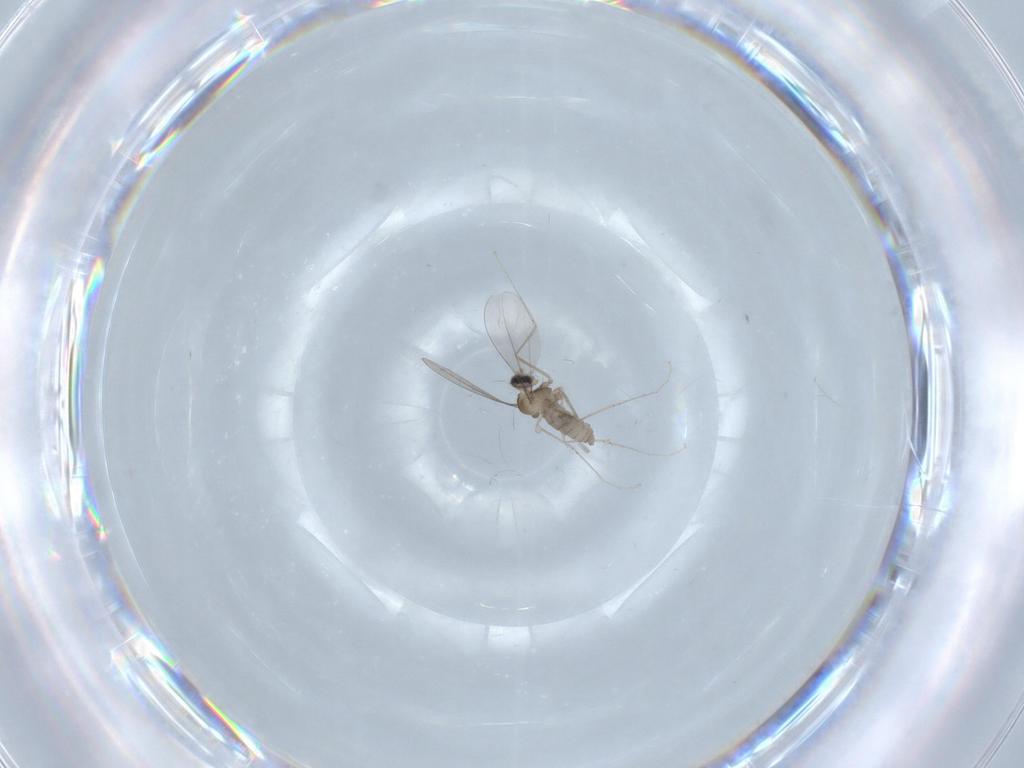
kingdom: Animalia
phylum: Arthropoda
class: Insecta
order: Diptera
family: Cecidomyiidae
